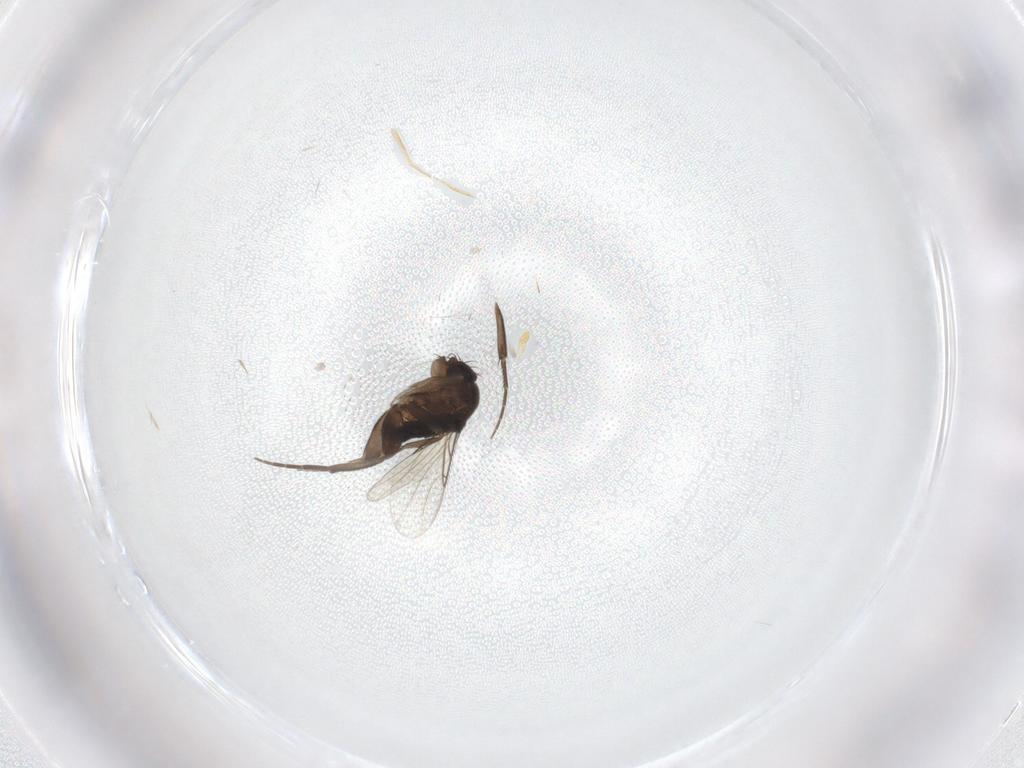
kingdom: Animalia
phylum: Arthropoda
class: Insecta
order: Diptera
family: Phoridae
